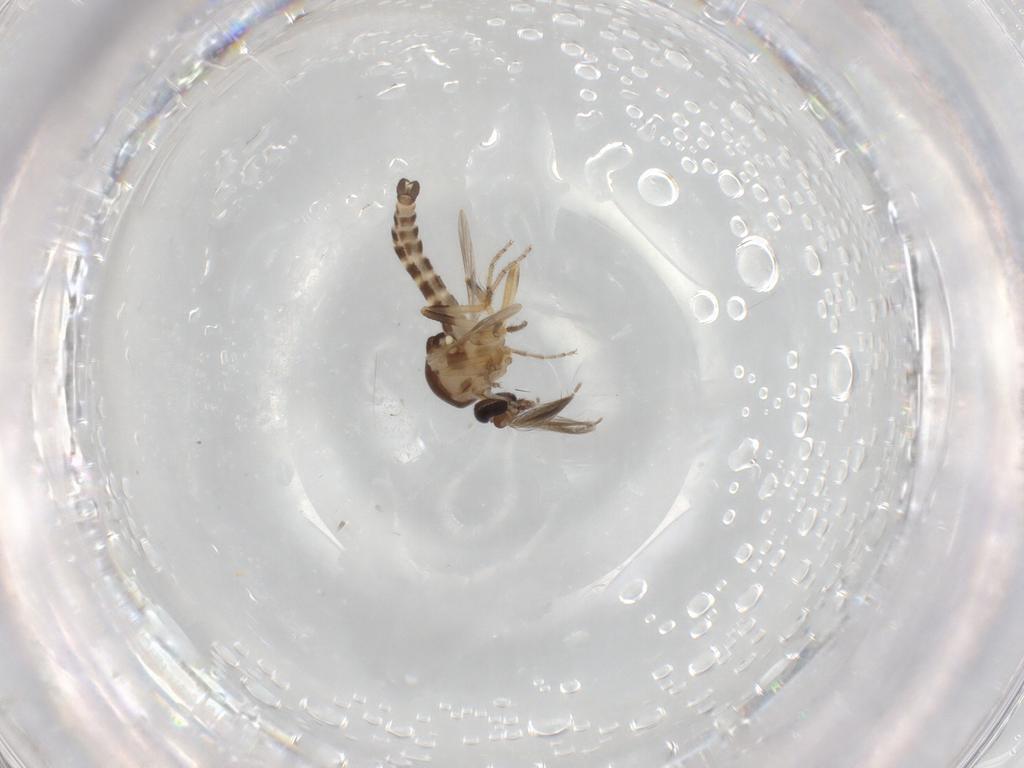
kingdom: Animalia
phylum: Arthropoda
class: Insecta
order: Diptera
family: Ceratopogonidae
